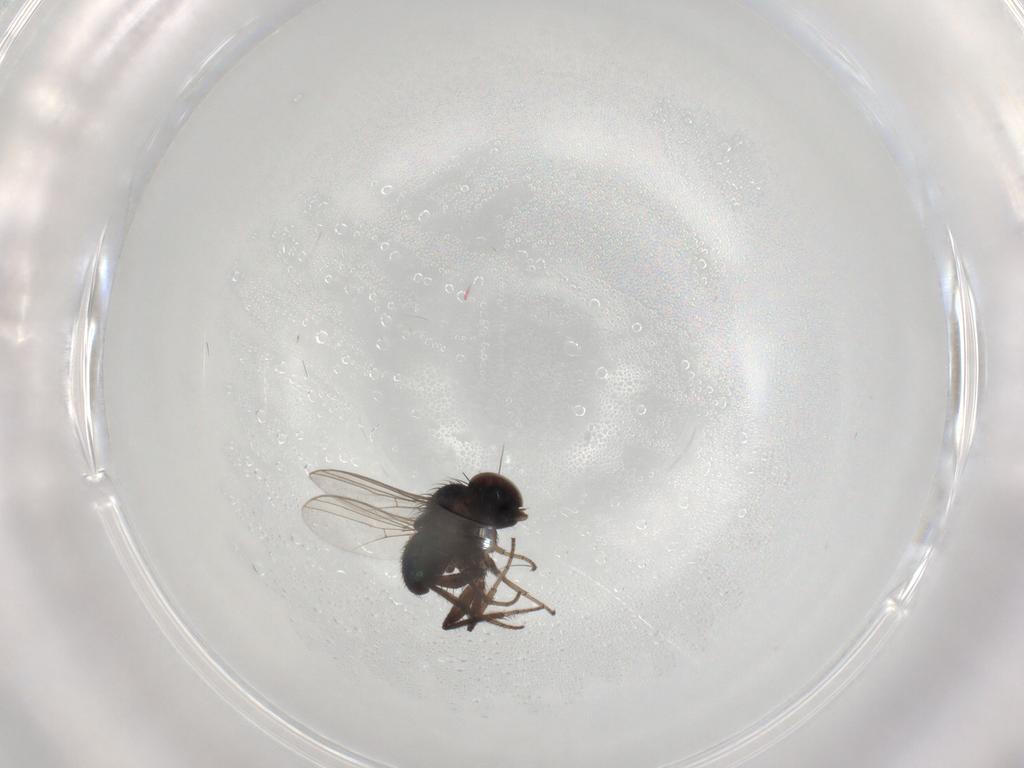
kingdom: Animalia
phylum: Arthropoda
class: Insecta
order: Diptera
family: Dolichopodidae
